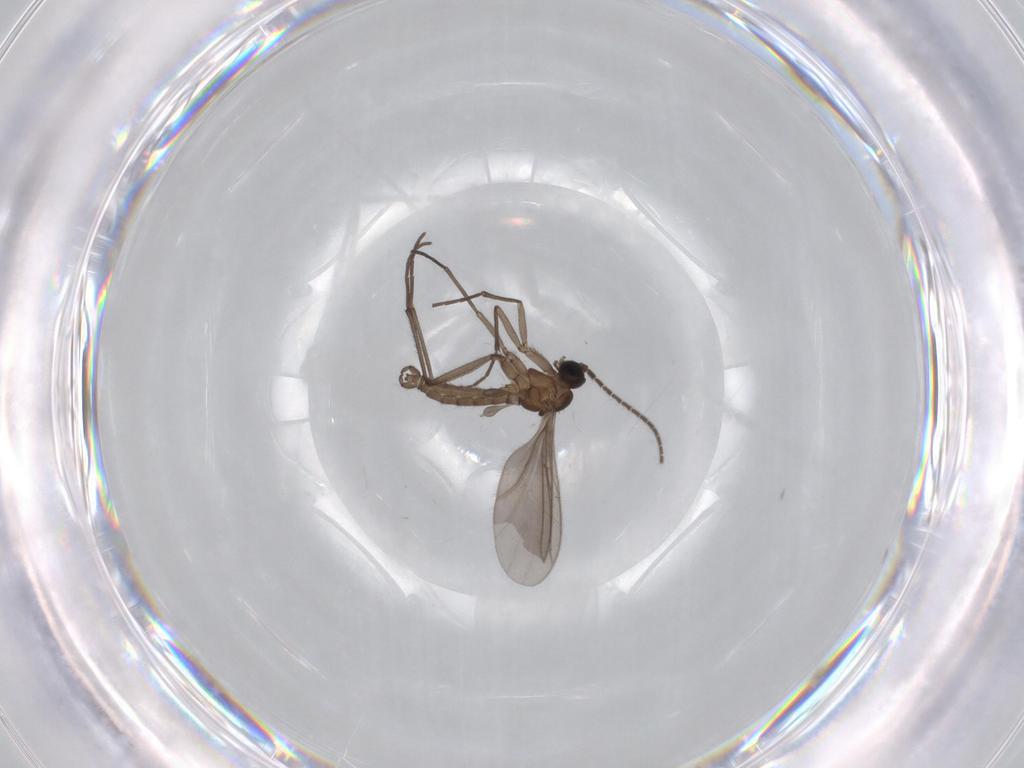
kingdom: Animalia
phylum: Arthropoda
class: Insecta
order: Diptera
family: Sciaridae
